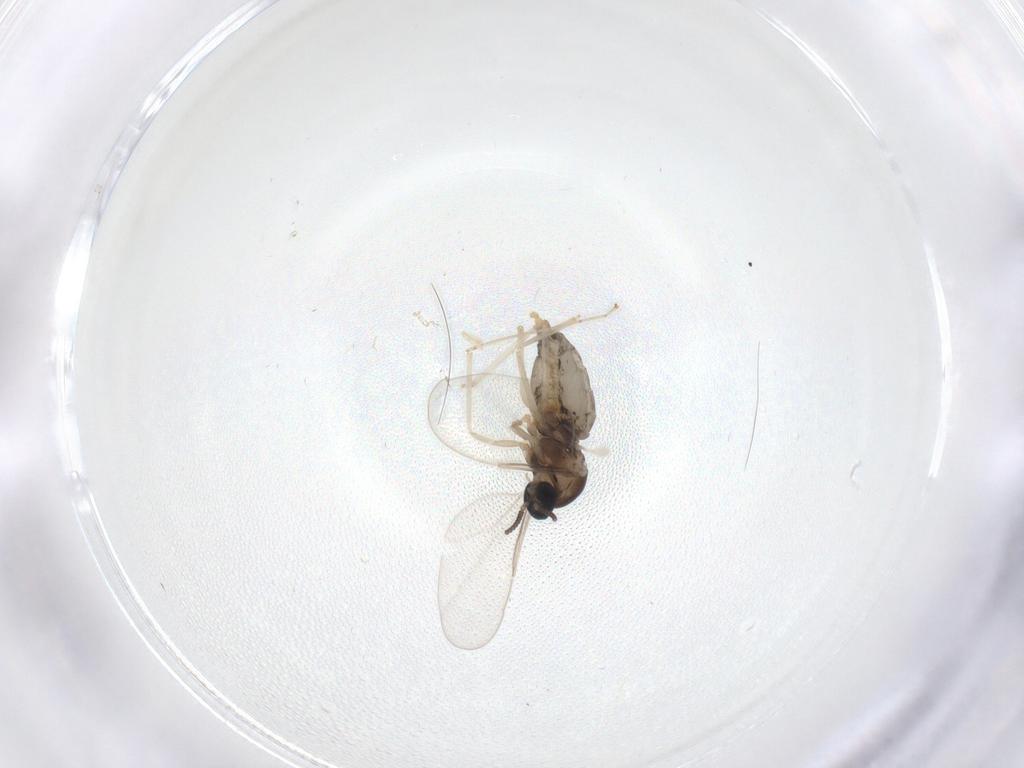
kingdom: Animalia
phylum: Arthropoda
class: Insecta
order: Diptera
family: Cecidomyiidae
